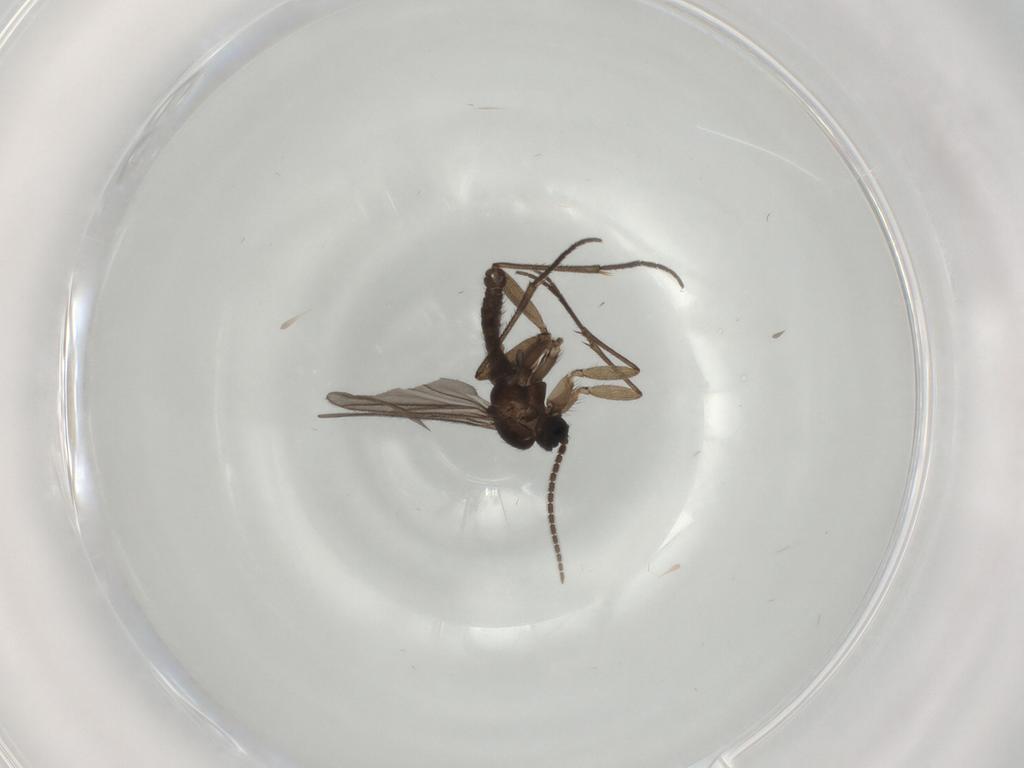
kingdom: Animalia
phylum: Arthropoda
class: Insecta
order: Diptera
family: Sciaridae
